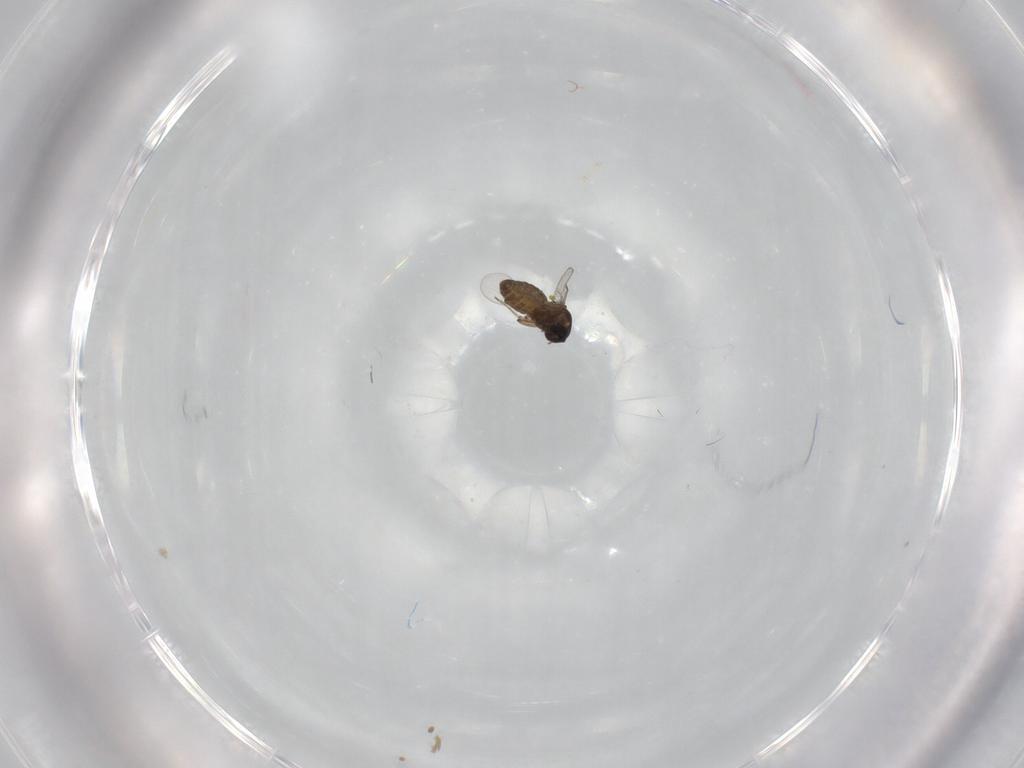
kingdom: Animalia
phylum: Arthropoda
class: Insecta
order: Diptera
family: Ceratopogonidae
